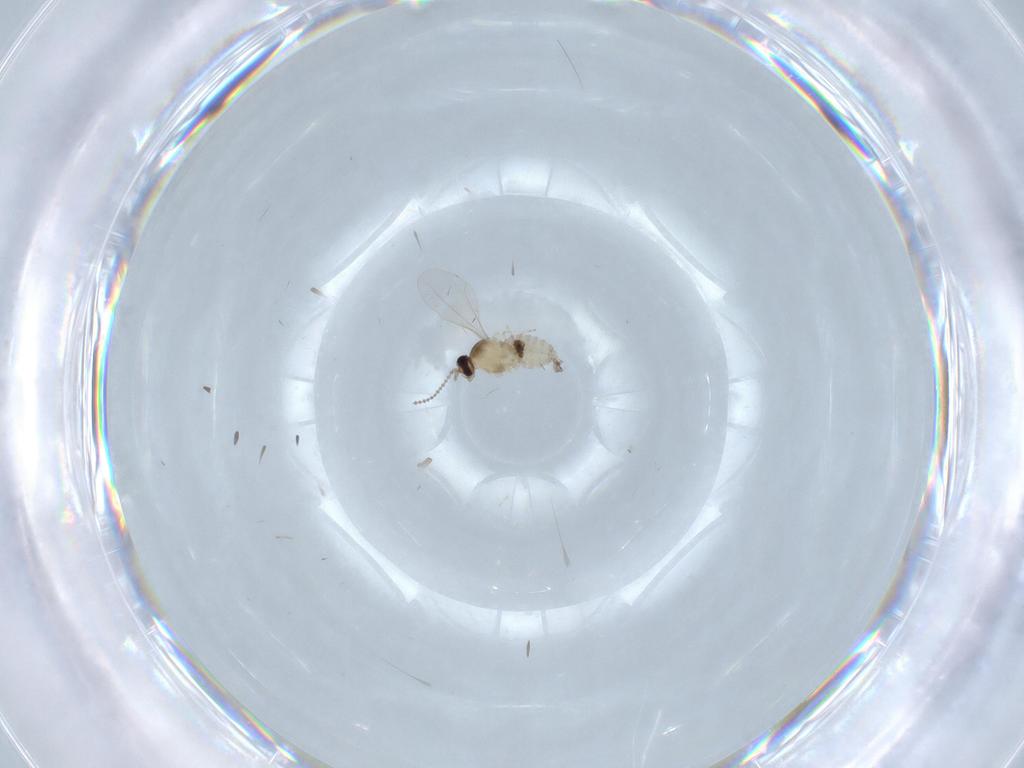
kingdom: Animalia
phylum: Arthropoda
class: Insecta
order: Diptera
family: Cecidomyiidae
